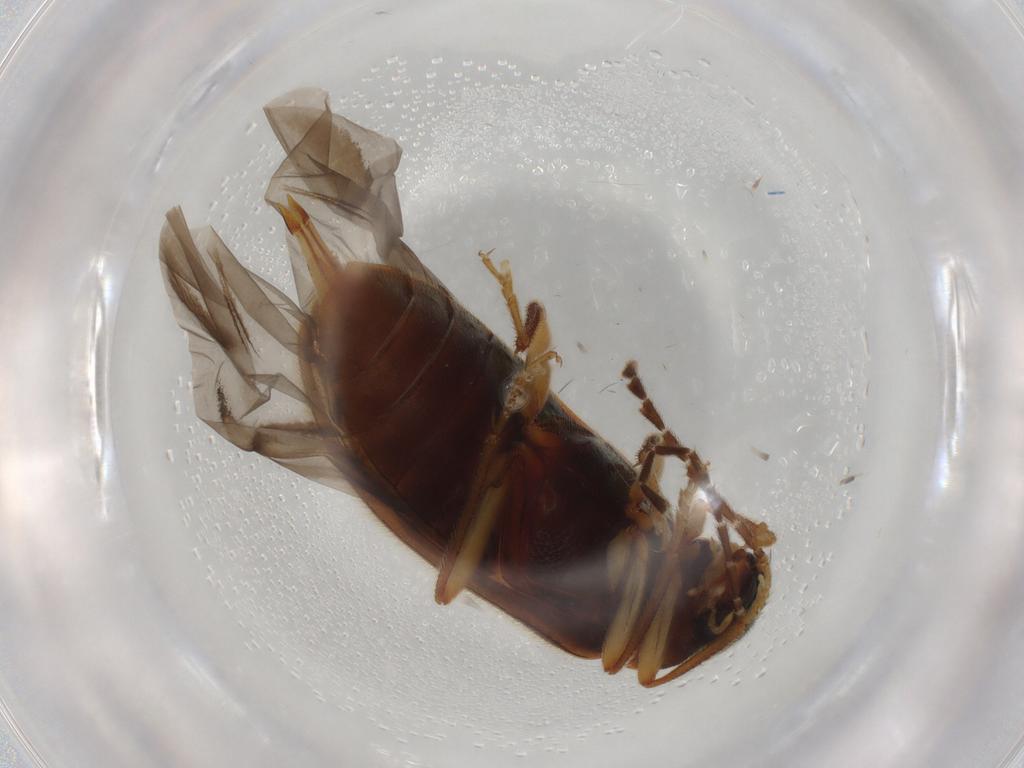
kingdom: Animalia
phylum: Arthropoda
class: Insecta
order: Coleoptera
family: Ptilodactylidae
